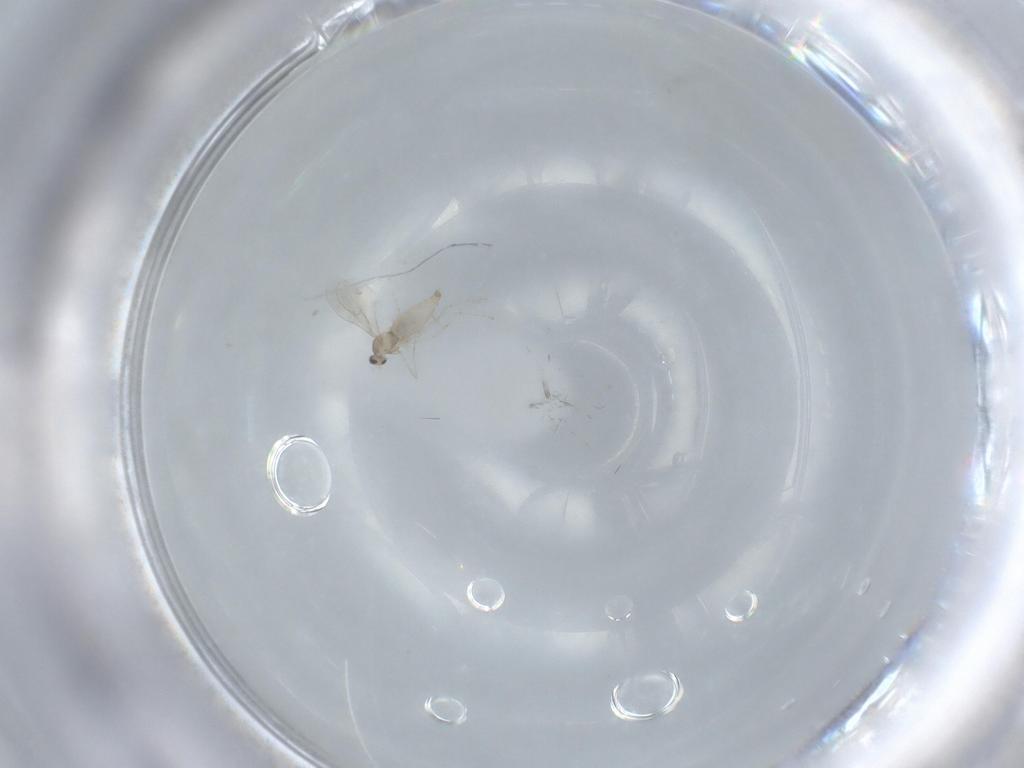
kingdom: Animalia
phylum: Arthropoda
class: Insecta
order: Diptera
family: Cecidomyiidae
